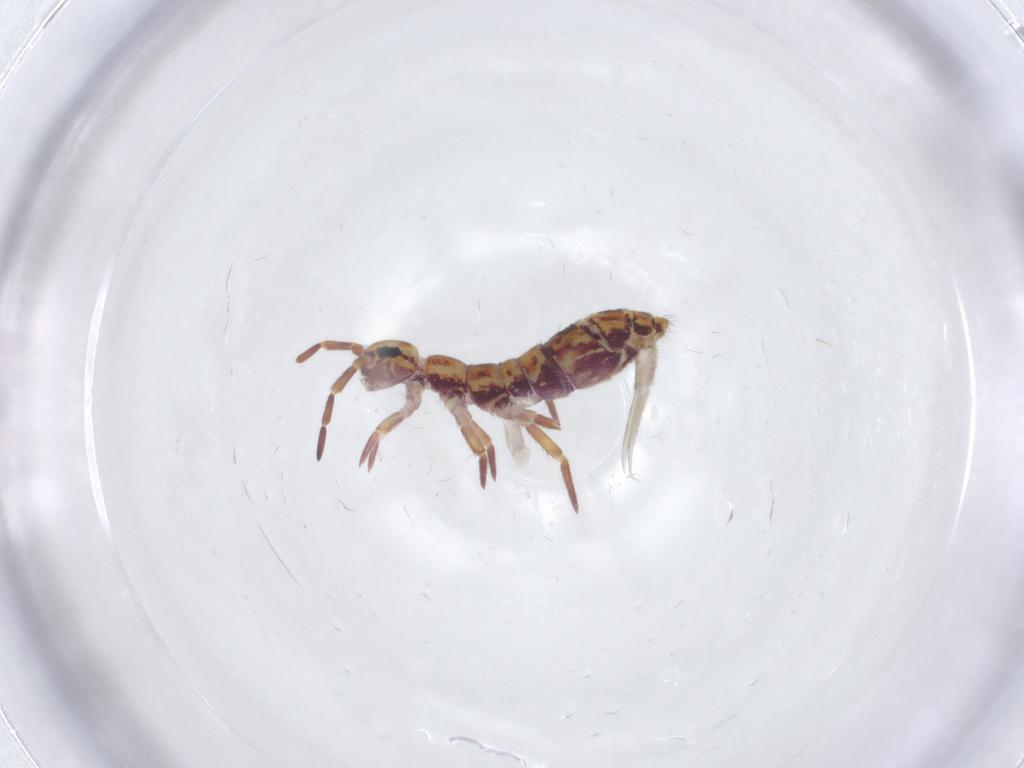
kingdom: Animalia
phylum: Arthropoda
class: Collembola
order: Entomobryomorpha
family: Isotomidae
